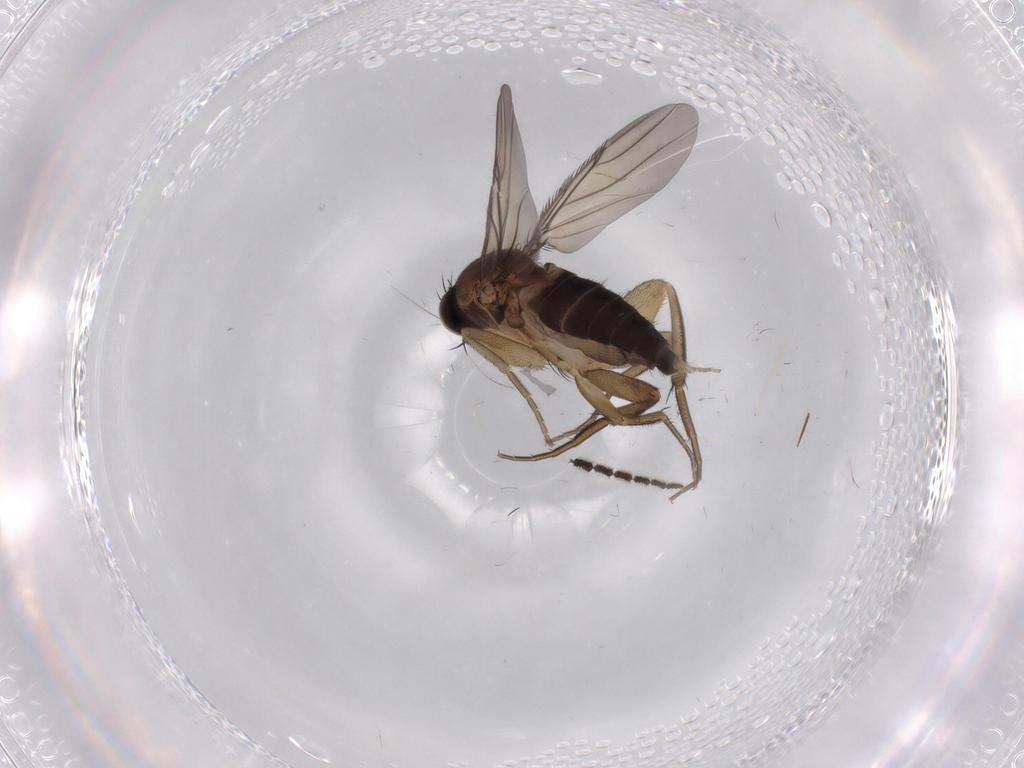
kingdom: Animalia
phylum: Arthropoda
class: Insecta
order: Diptera
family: Phoridae
